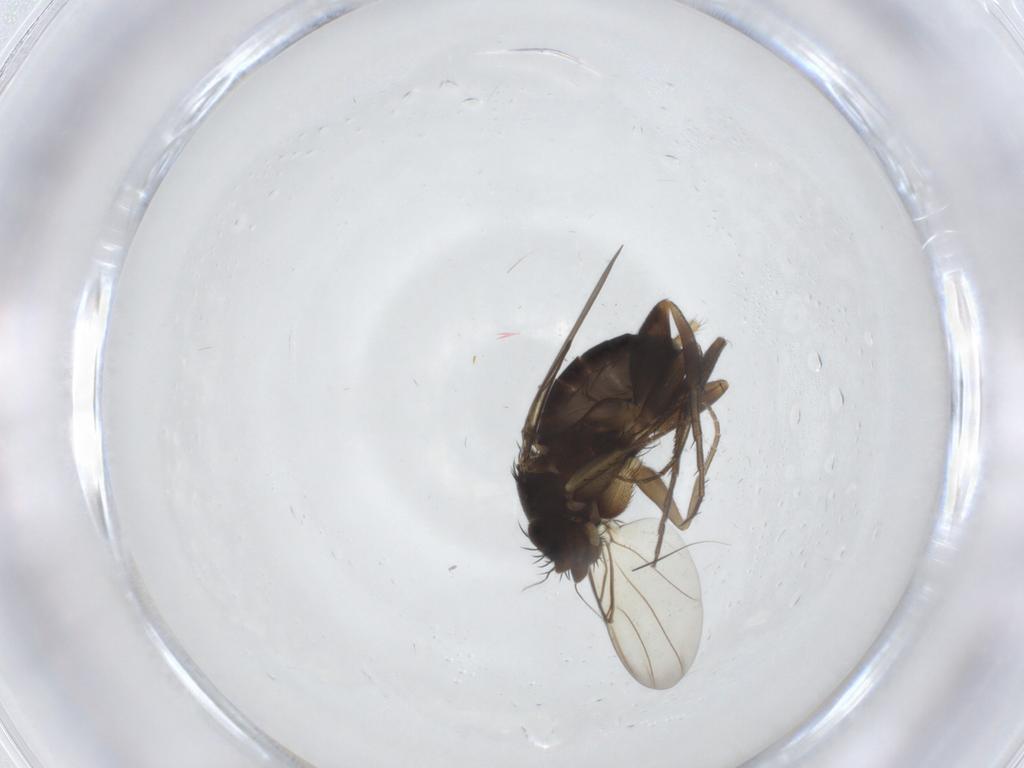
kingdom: Animalia
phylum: Arthropoda
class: Insecta
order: Diptera
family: Phoridae
